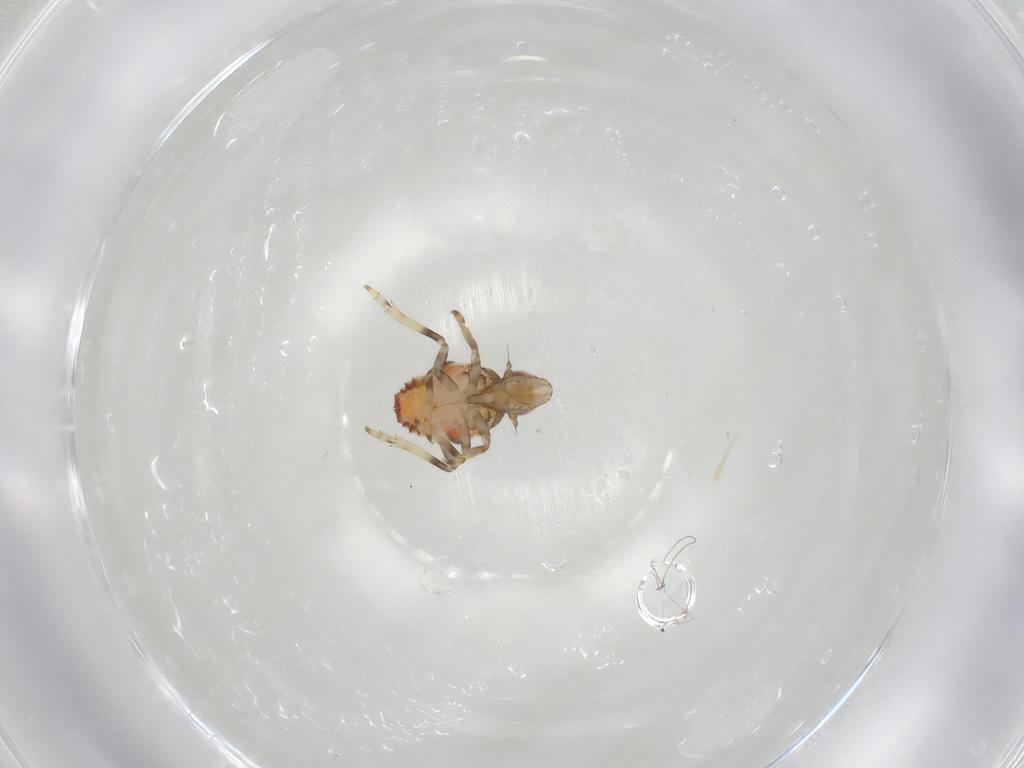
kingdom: Animalia
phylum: Arthropoda
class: Insecta
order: Hemiptera
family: Tropiduchidae
